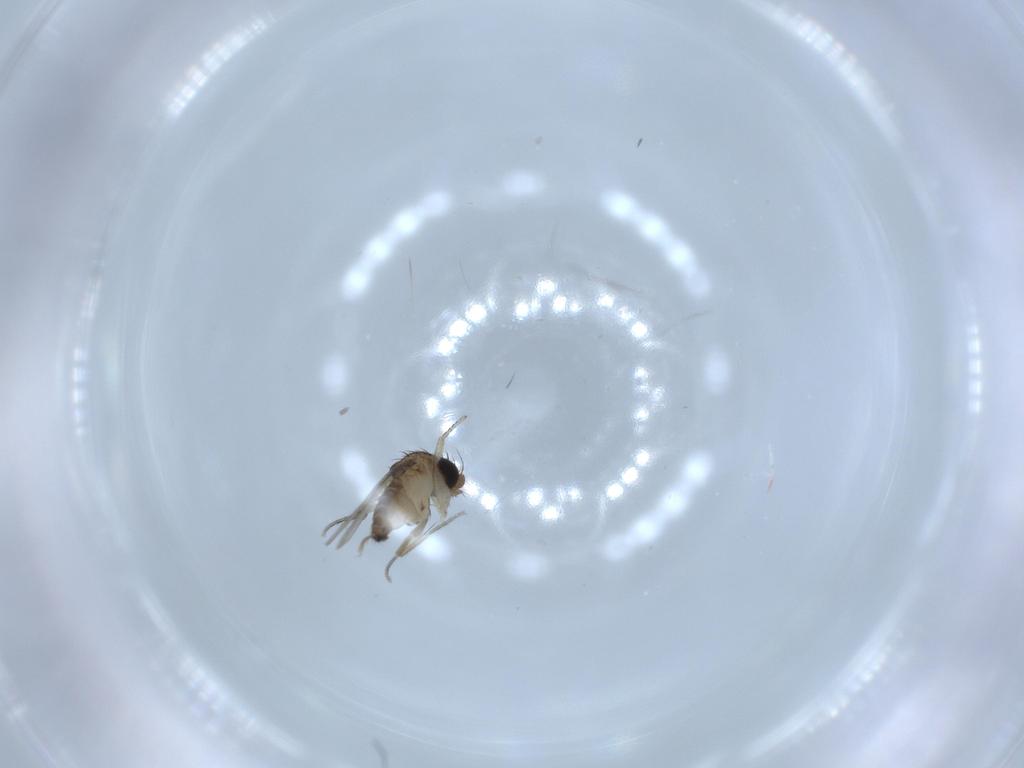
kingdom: Animalia
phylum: Arthropoda
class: Insecta
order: Diptera
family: Phoridae
